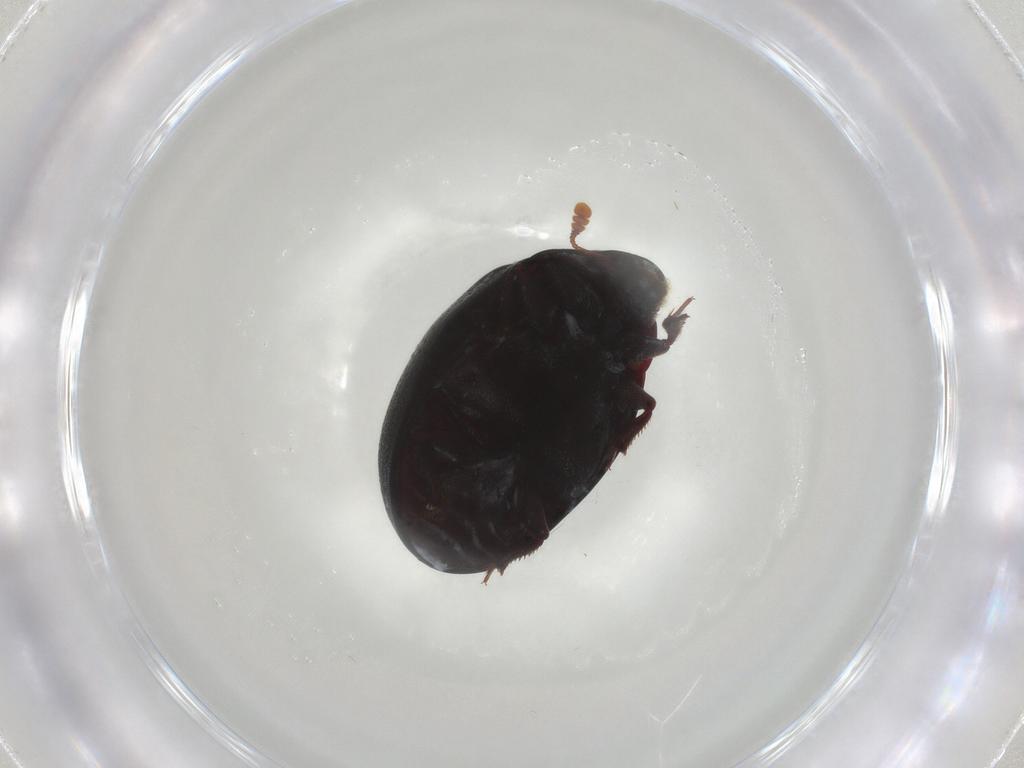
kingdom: Animalia
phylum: Arthropoda
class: Insecta
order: Coleoptera
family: Nosodendridae
